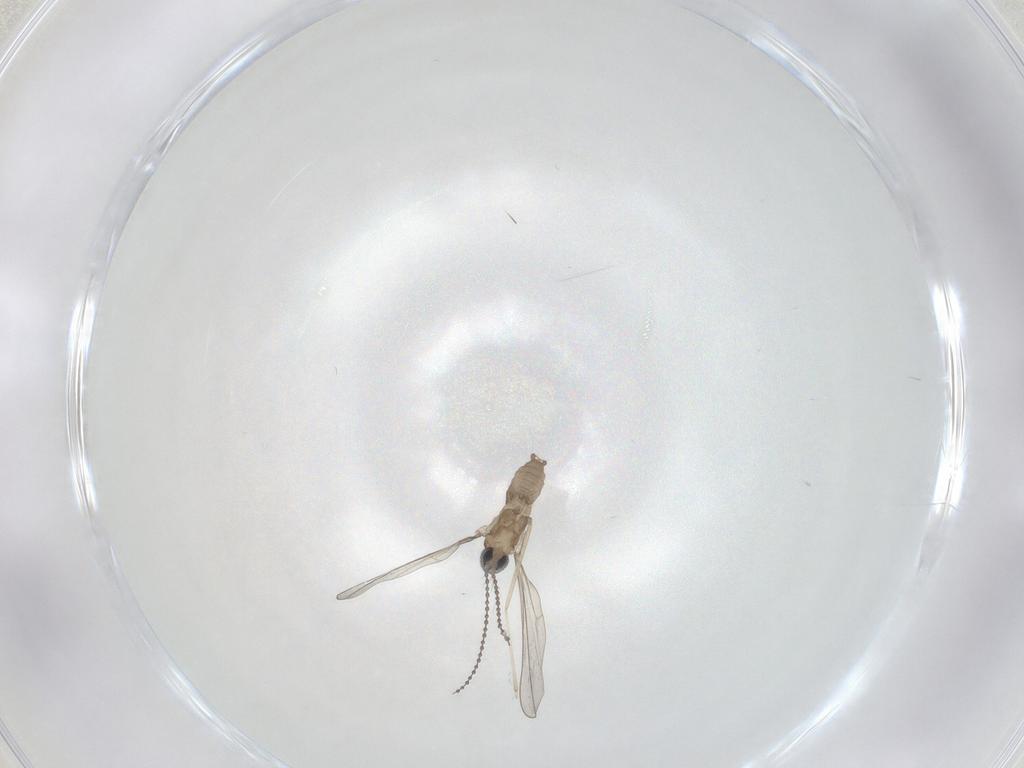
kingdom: Animalia
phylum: Arthropoda
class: Insecta
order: Diptera
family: Cecidomyiidae
